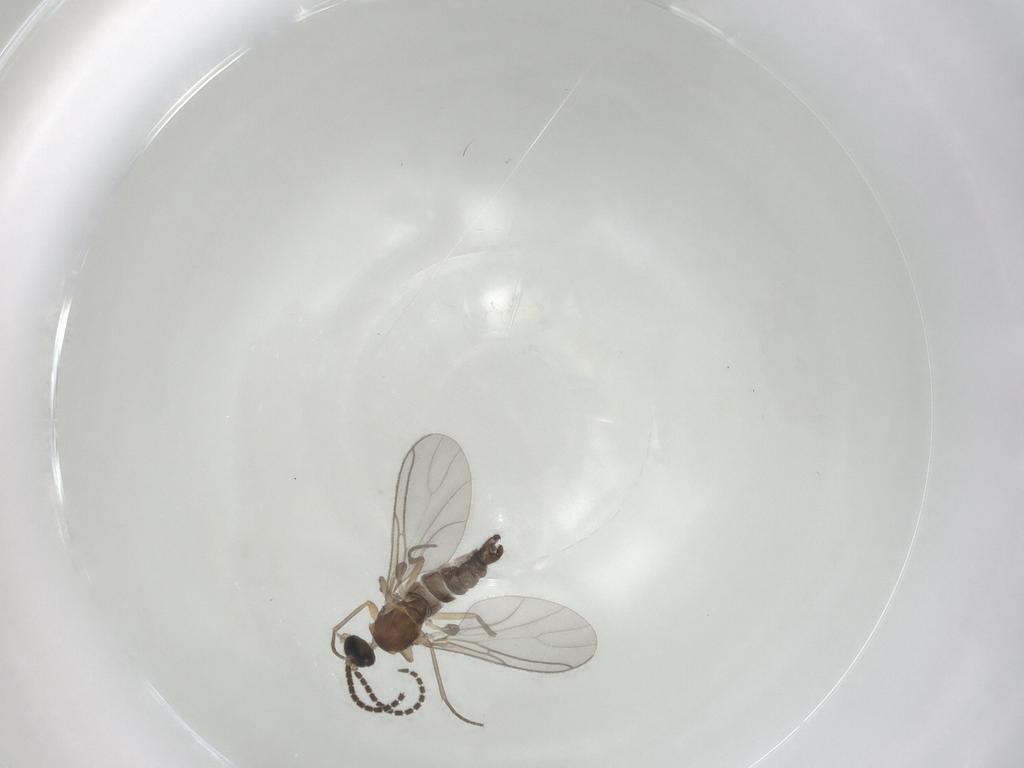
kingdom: Animalia
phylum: Arthropoda
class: Insecta
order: Diptera
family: Sciaridae
